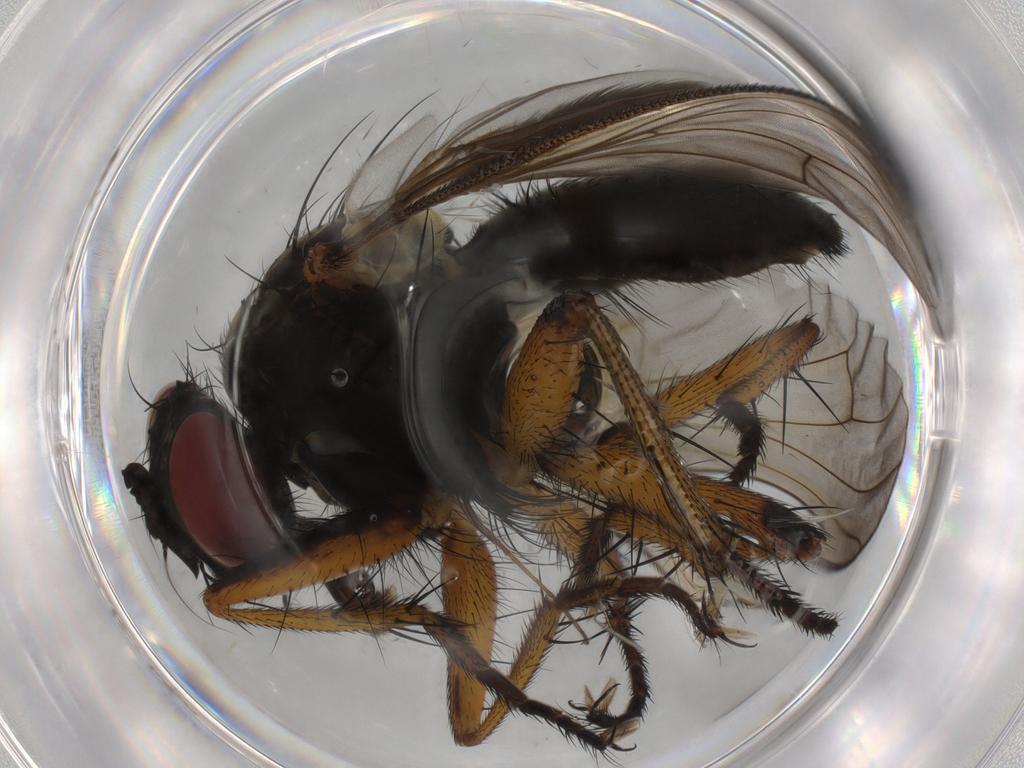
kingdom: Animalia
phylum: Arthropoda
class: Insecta
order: Diptera
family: Muscidae
